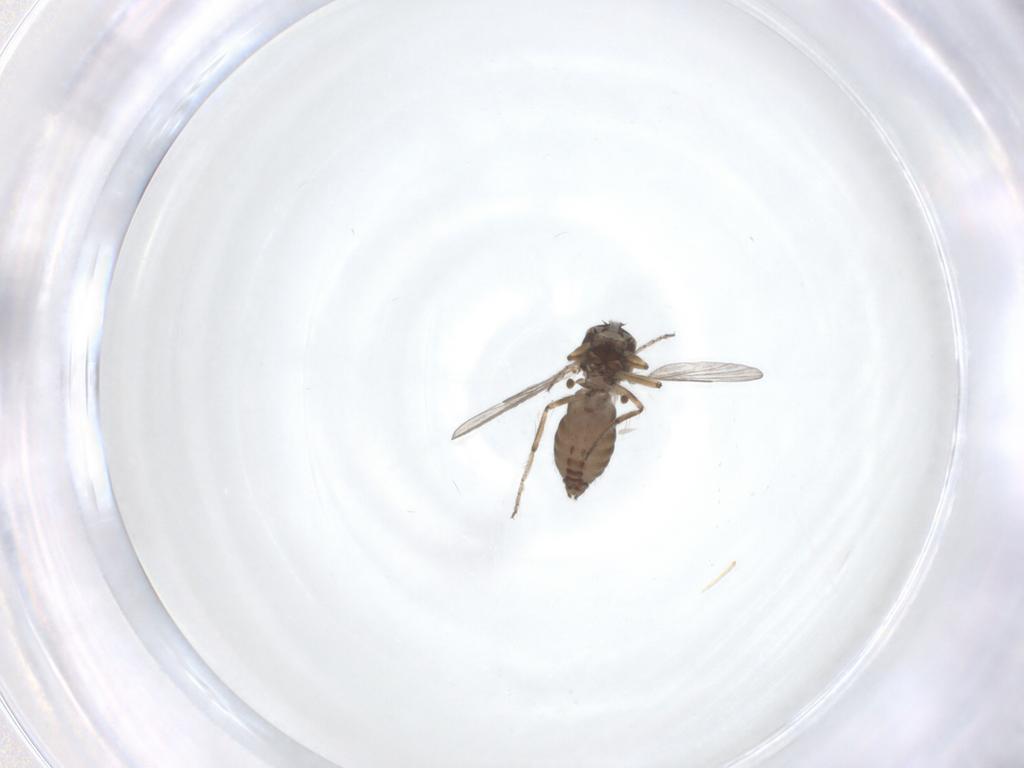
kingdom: Animalia
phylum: Arthropoda
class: Insecta
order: Diptera
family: Ceratopogonidae
